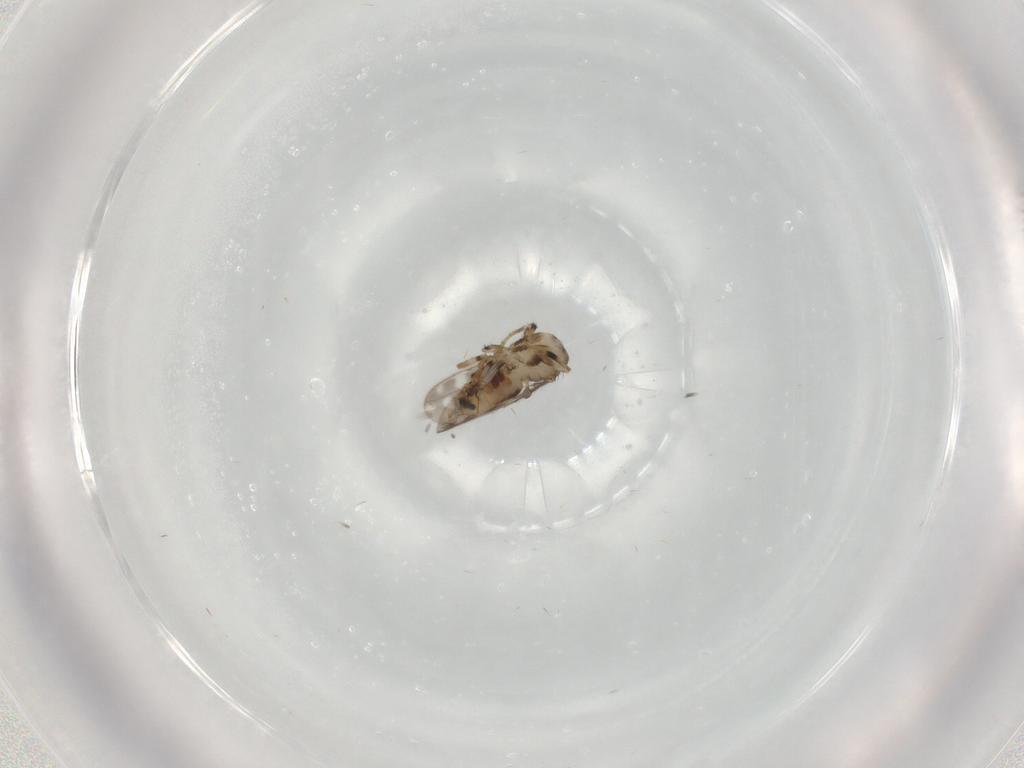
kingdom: Animalia
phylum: Arthropoda
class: Insecta
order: Diptera
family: Sphaeroceridae
